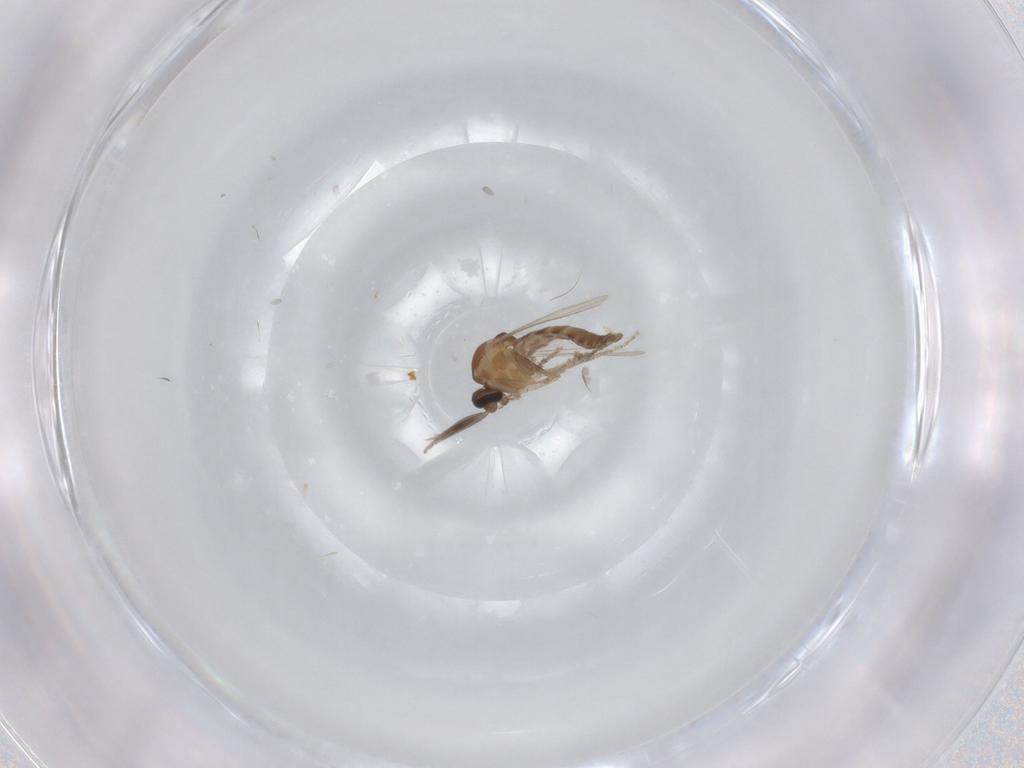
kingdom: Animalia
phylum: Arthropoda
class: Insecta
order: Diptera
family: Ceratopogonidae
